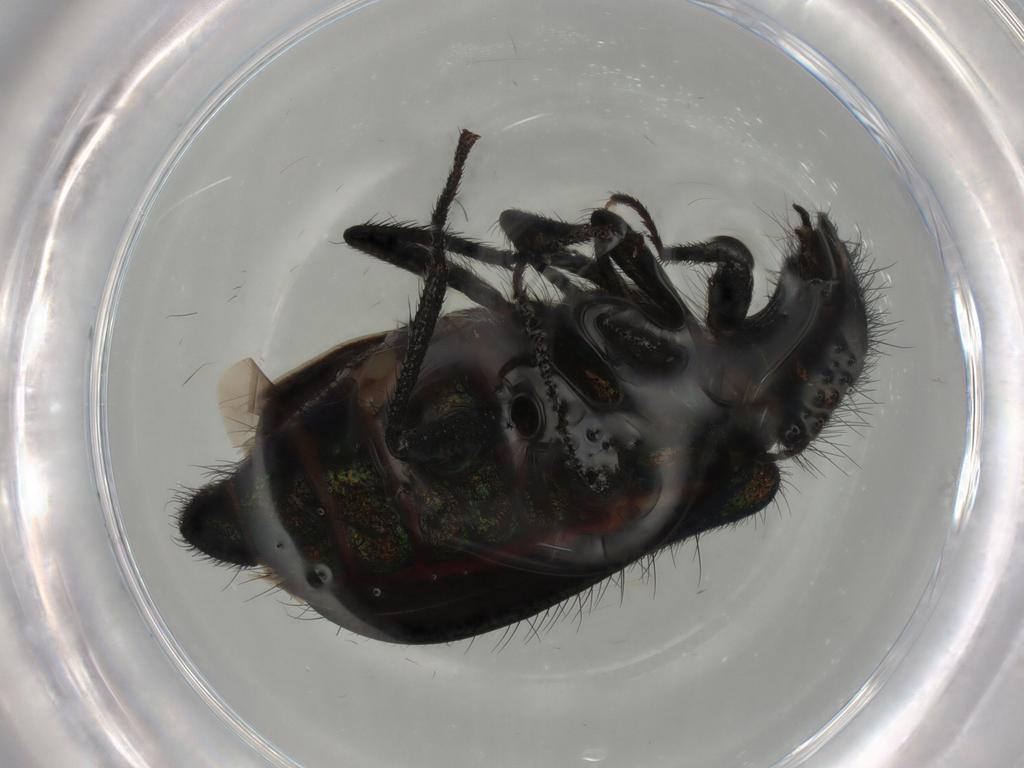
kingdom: Animalia
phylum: Arthropoda
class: Insecta
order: Coleoptera
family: Melyridae
